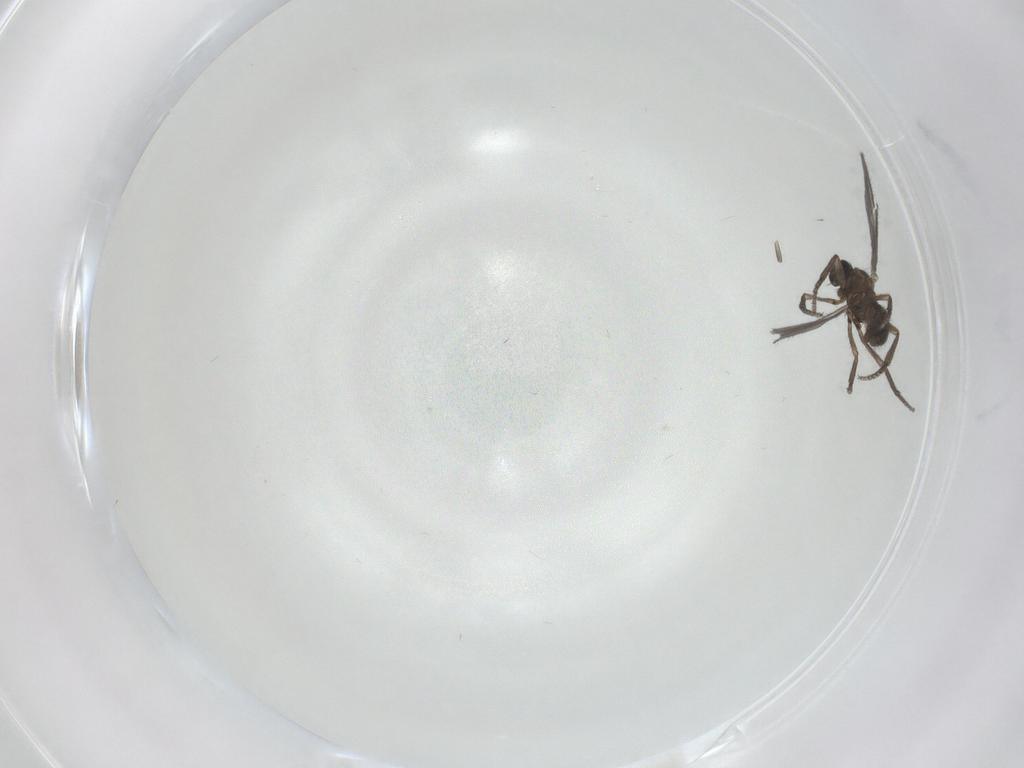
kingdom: Animalia
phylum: Arthropoda
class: Insecta
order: Diptera
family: Sciaridae
